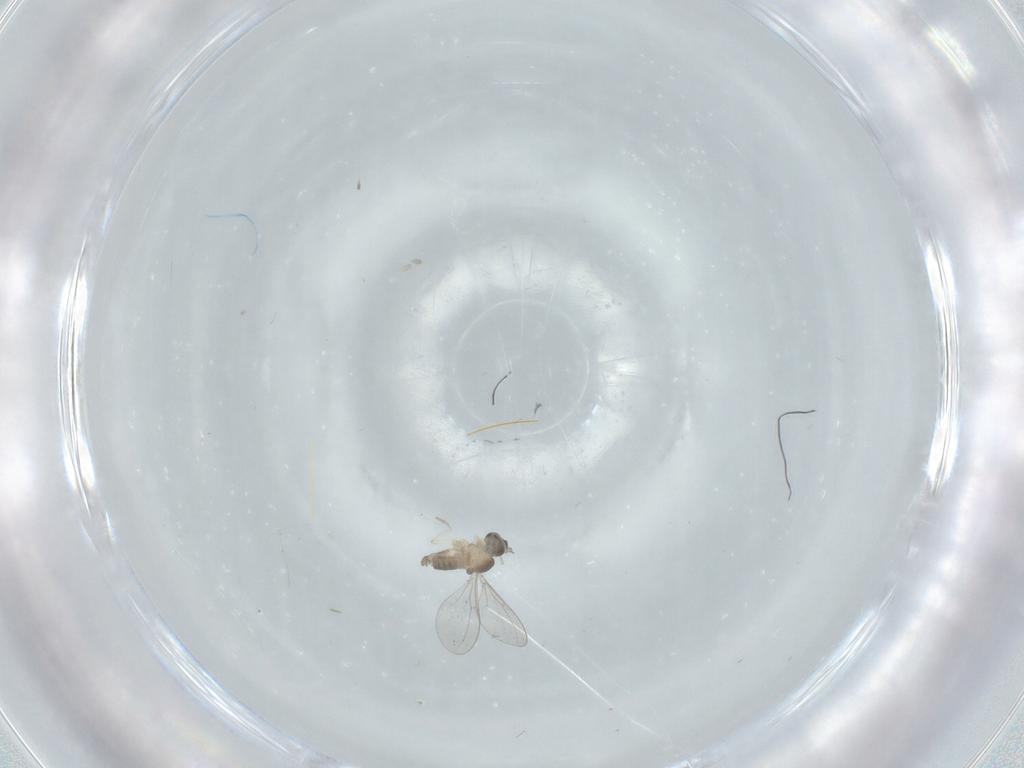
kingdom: Animalia
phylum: Arthropoda
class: Insecta
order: Diptera
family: Cecidomyiidae
